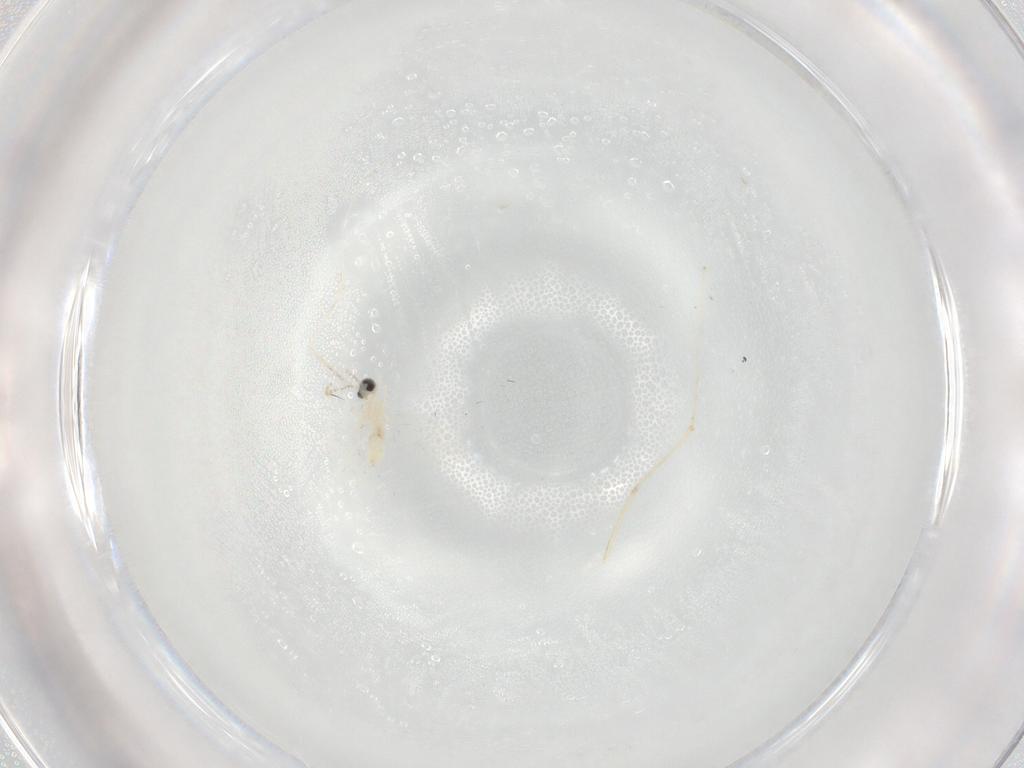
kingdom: Animalia
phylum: Arthropoda
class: Insecta
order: Diptera
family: Cecidomyiidae
